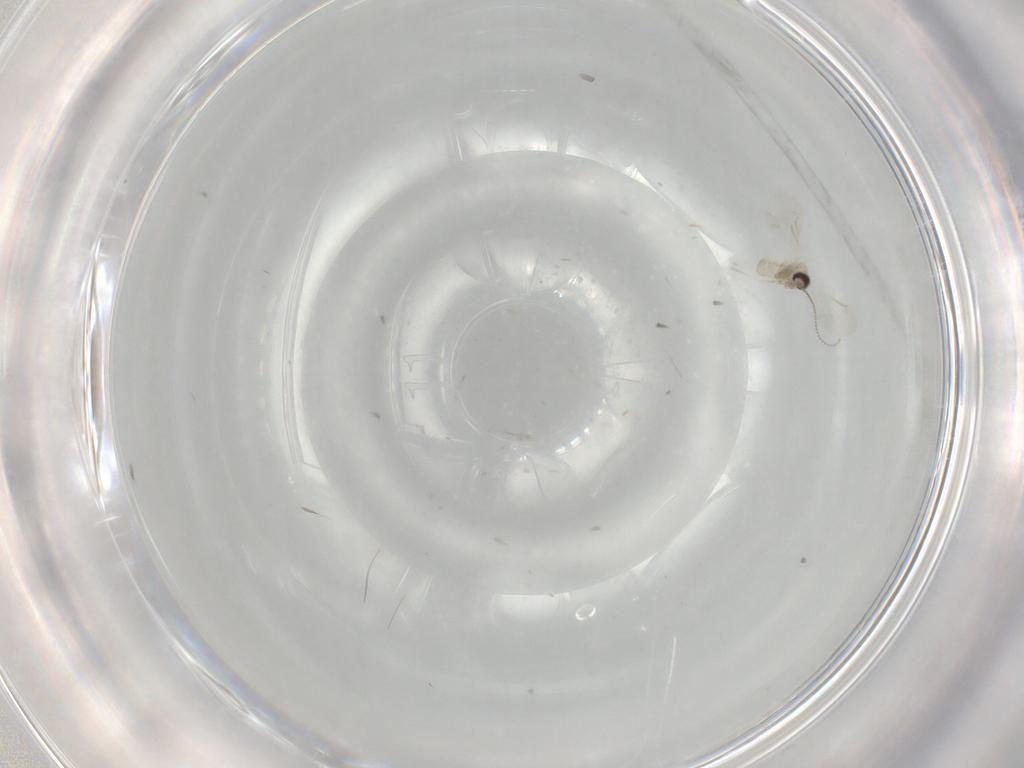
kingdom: Animalia
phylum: Arthropoda
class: Insecta
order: Diptera
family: Cecidomyiidae
